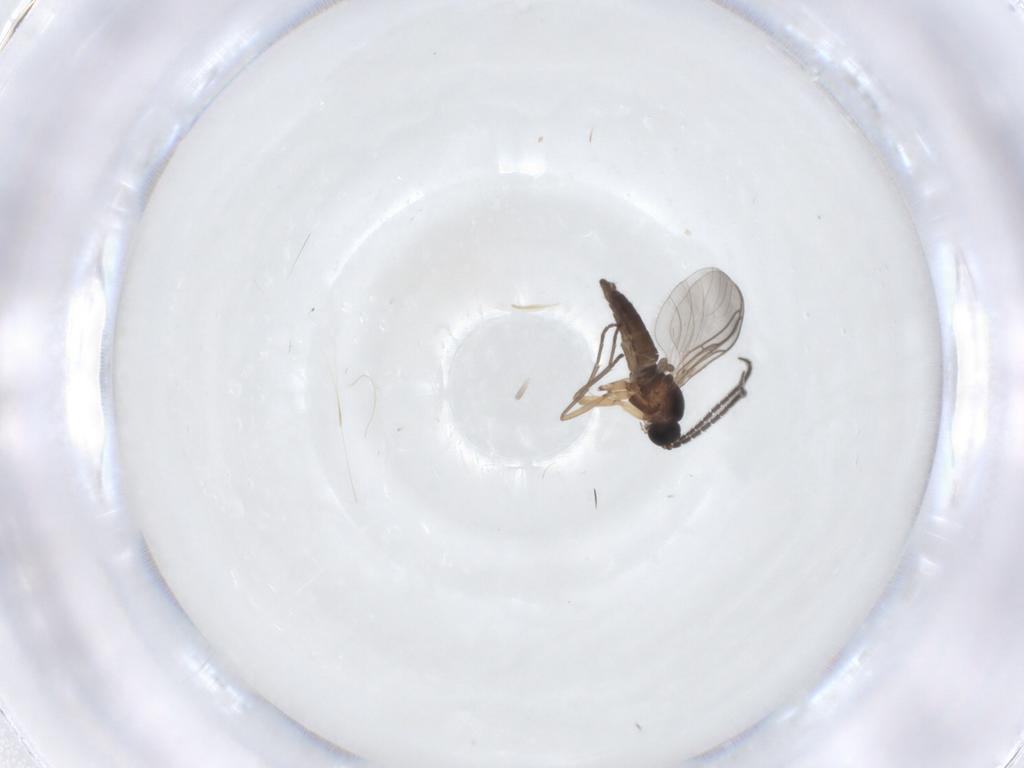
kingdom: Animalia
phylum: Arthropoda
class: Insecta
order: Diptera
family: Sciaridae
